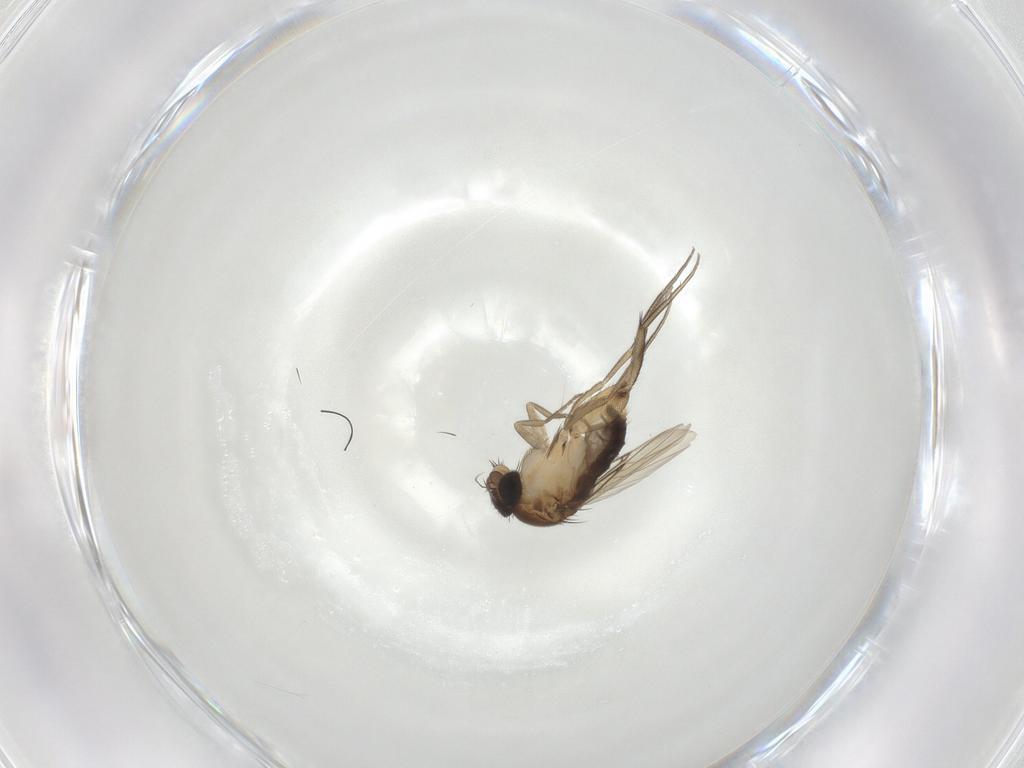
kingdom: Animalia
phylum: Arthropoda
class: Insecta
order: Diptera
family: Phoridae
